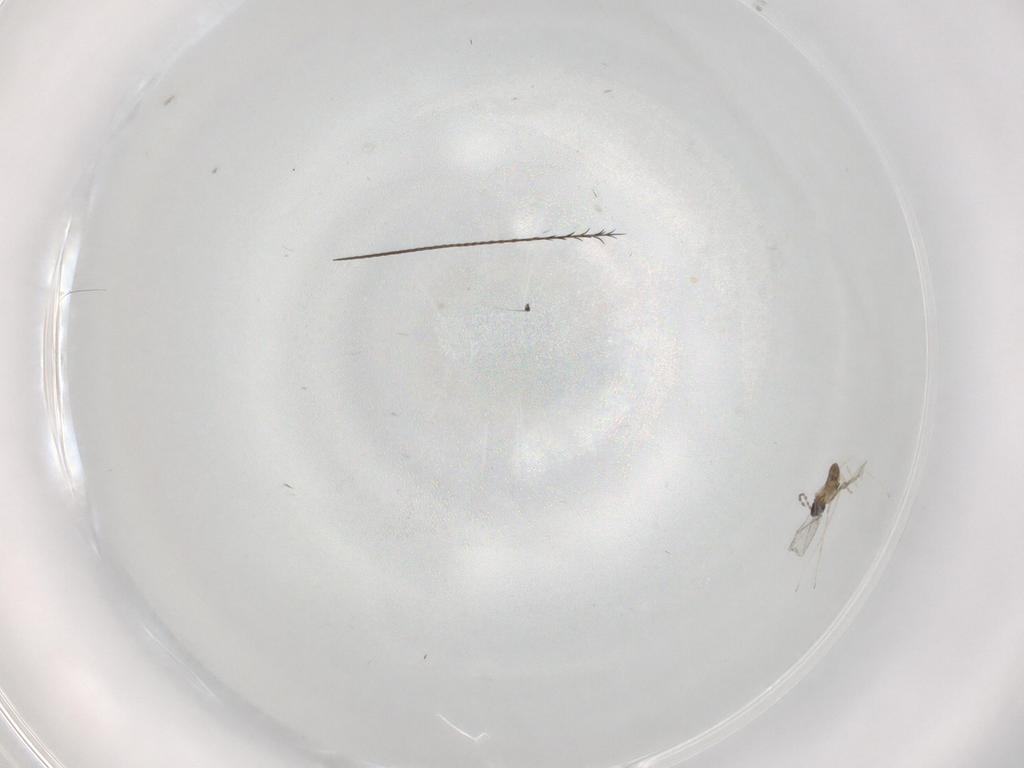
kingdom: Animalia
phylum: Arthropoda
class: Insecta
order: Diptera
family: Cecidomyiidae
